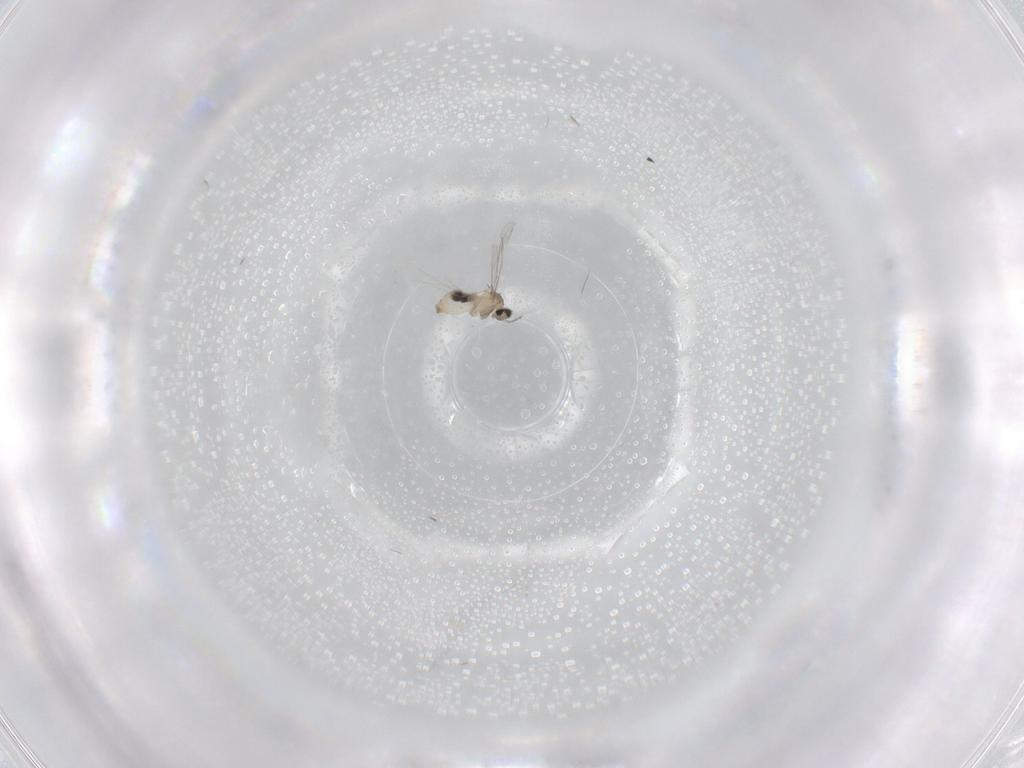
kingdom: Animalia
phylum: Arthropoda
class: Insecta
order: Diptera
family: Cecidomyiidae
